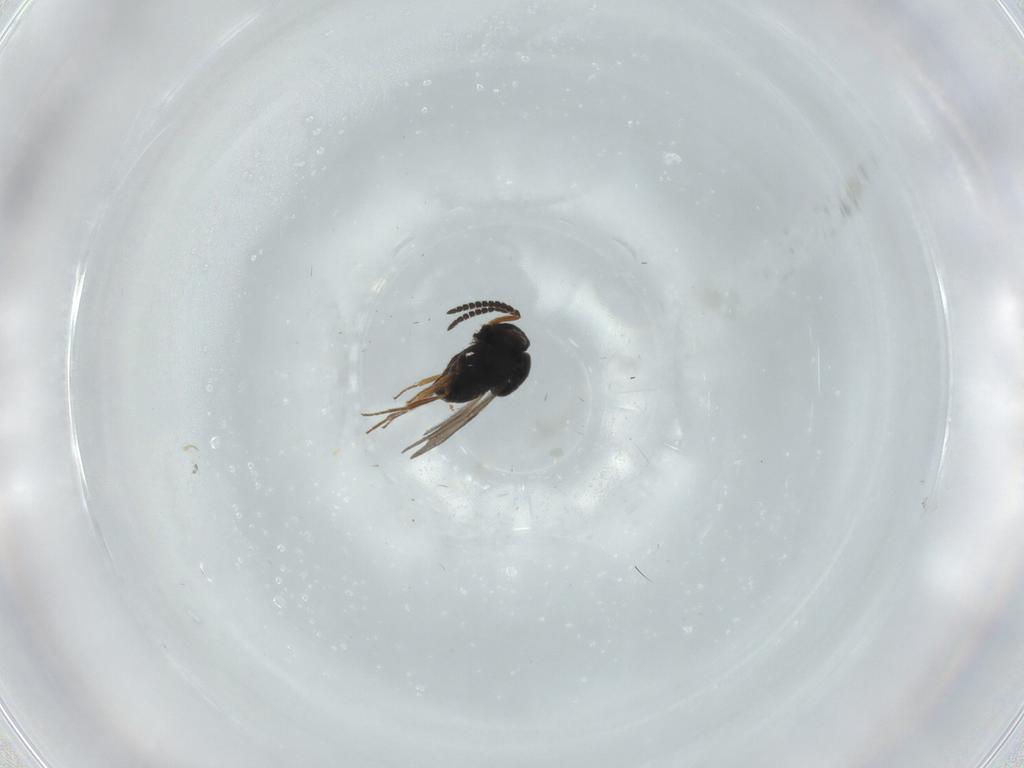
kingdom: Animalia
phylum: Arthropoda
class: Insecta
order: Hymenoptera
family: Scelionidae
